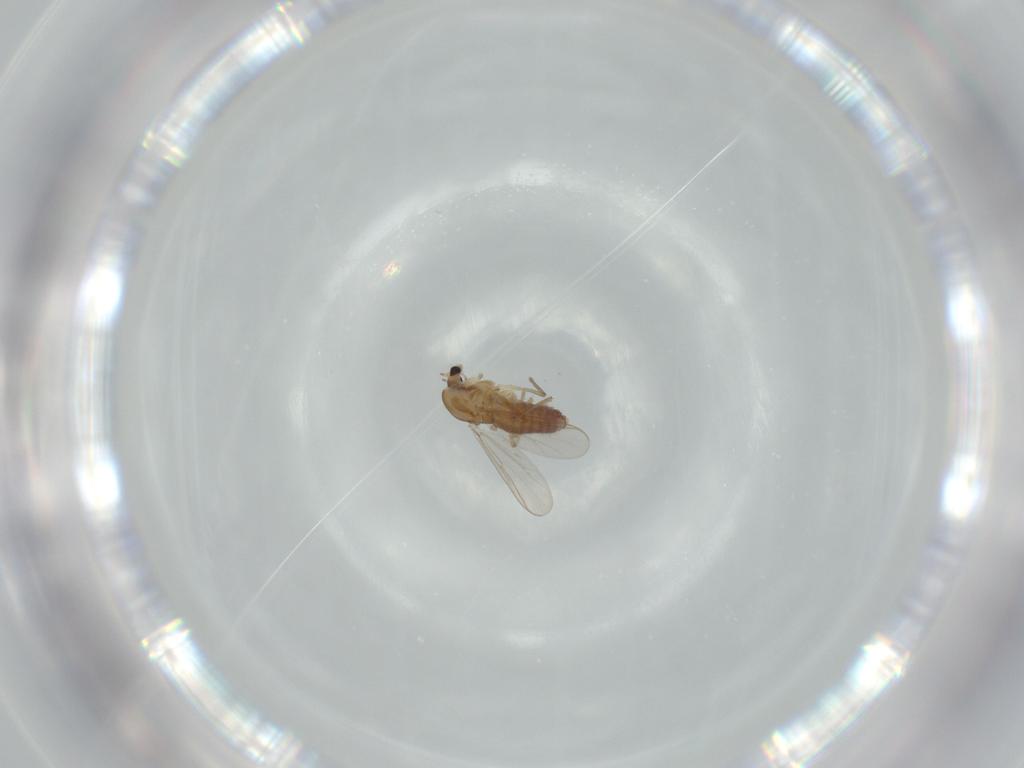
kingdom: Animalia
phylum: Arthropoda
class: Insecta
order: Diptera
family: Chironomidae
